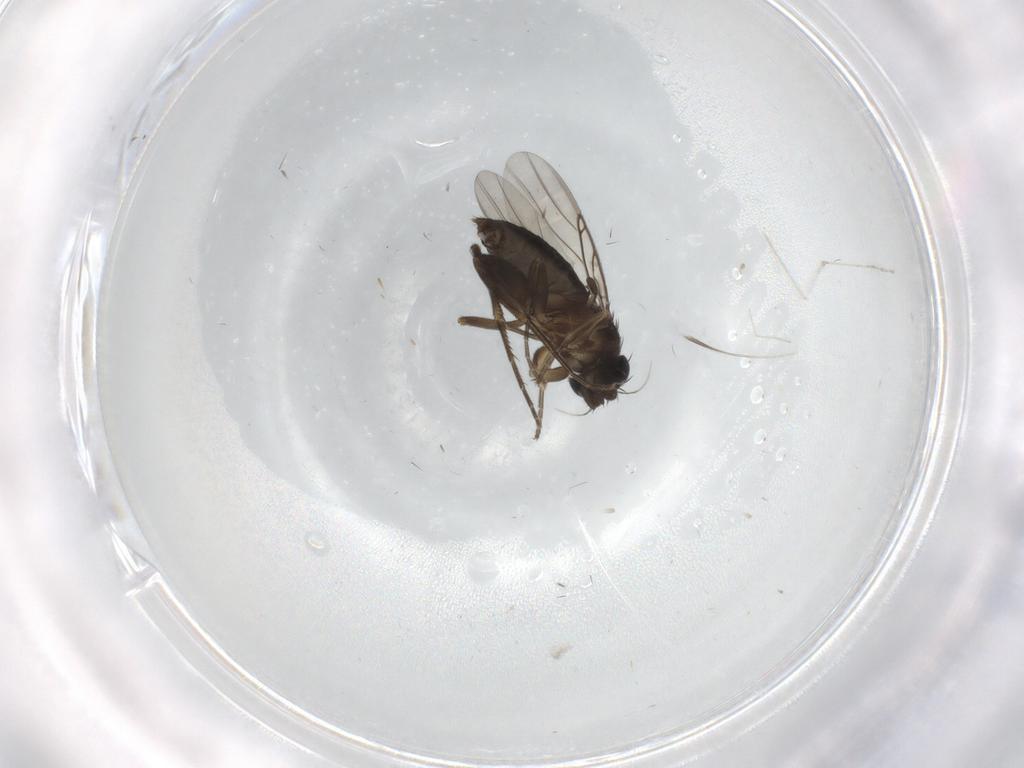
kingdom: Animalia
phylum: Arthropoda
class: Insecta
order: Diptera
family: Phoridae
